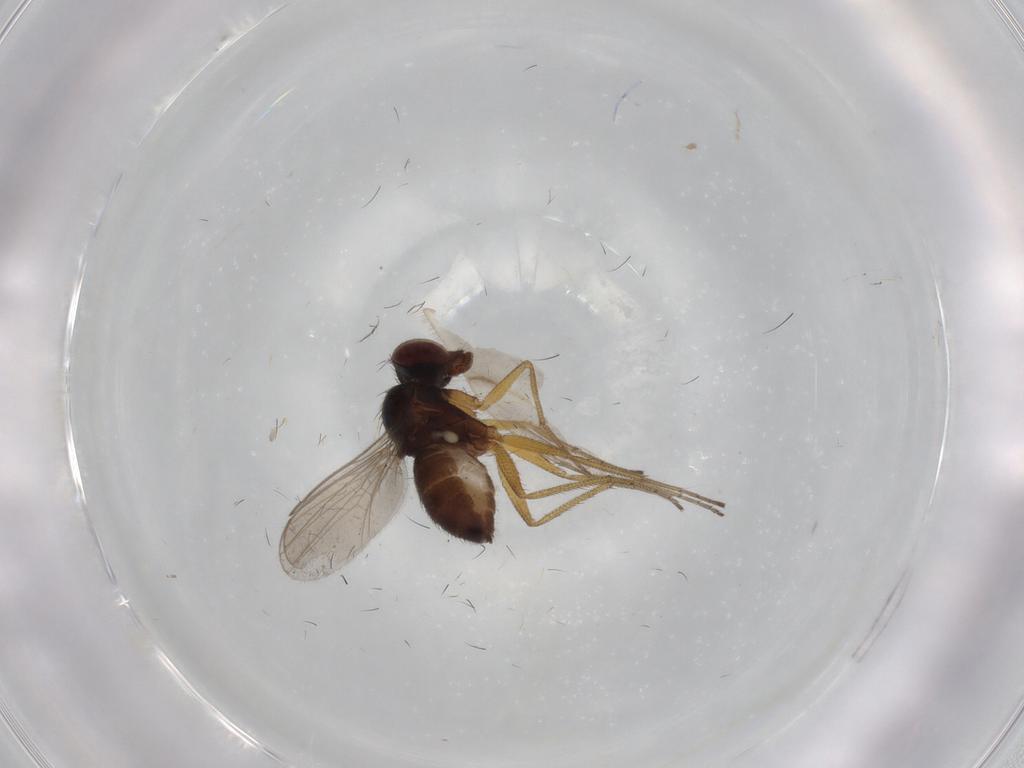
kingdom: Animalia
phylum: Arthropoda
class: Insecta
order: Diptera
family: Dolichopodidae
